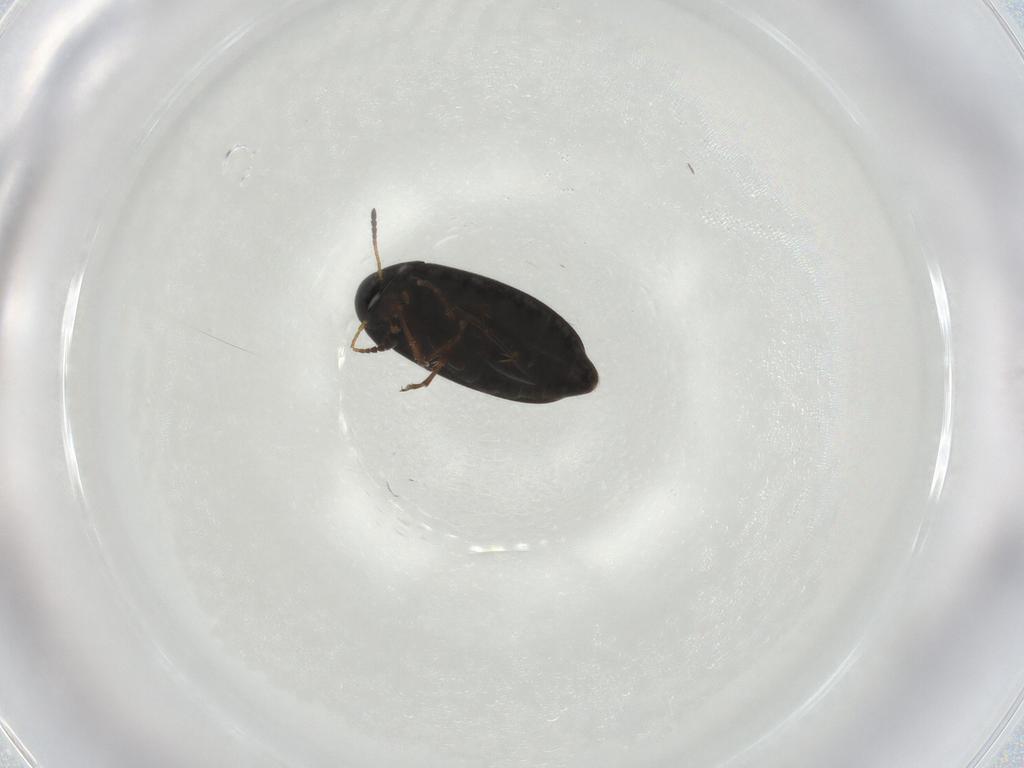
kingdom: Animalia
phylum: Arthropoda
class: Insecta
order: Coleoptera
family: Scraptiidae
